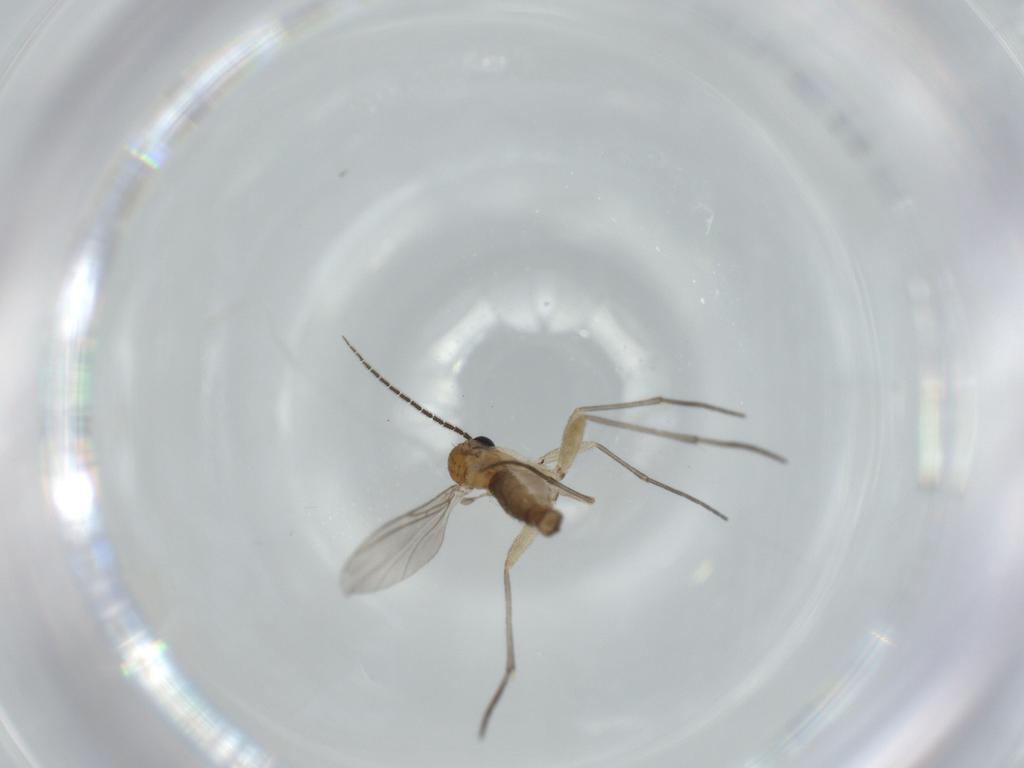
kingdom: Animalia
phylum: Arthropoda
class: Insecta
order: Diptera
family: Sciaridae
